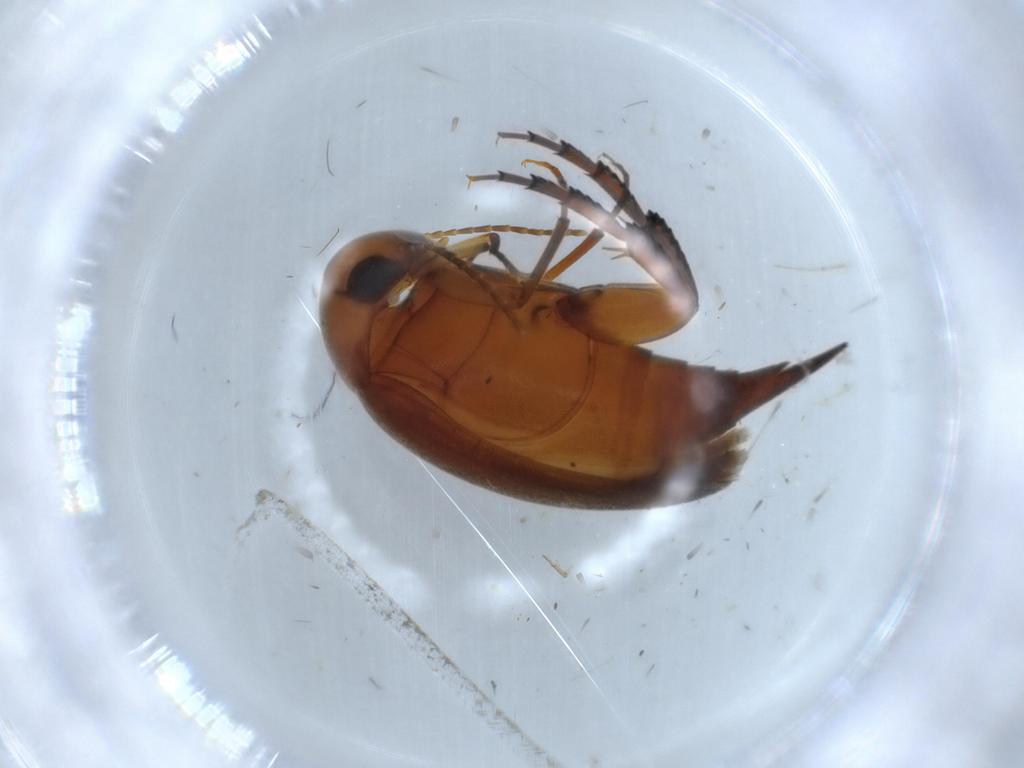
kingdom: Animalia
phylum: Arthropoda
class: Insecta
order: Coleoptera
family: Mordellidae
